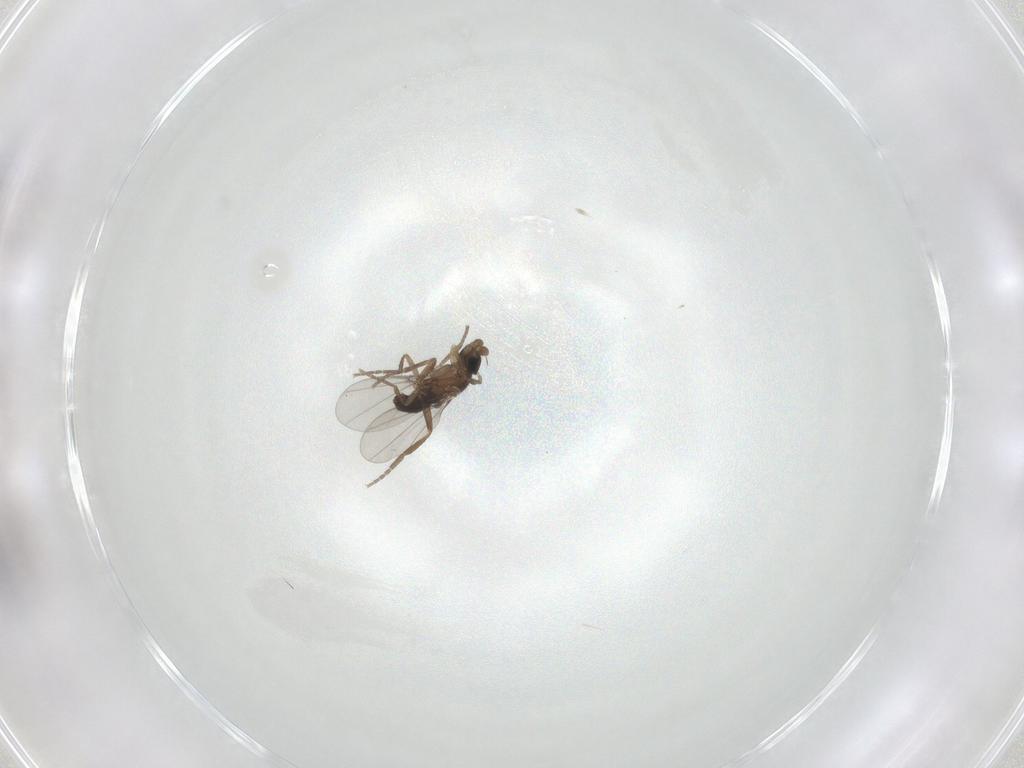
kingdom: Animalia
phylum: Arthropoda
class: Insecta
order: Diptera
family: Phoridae
